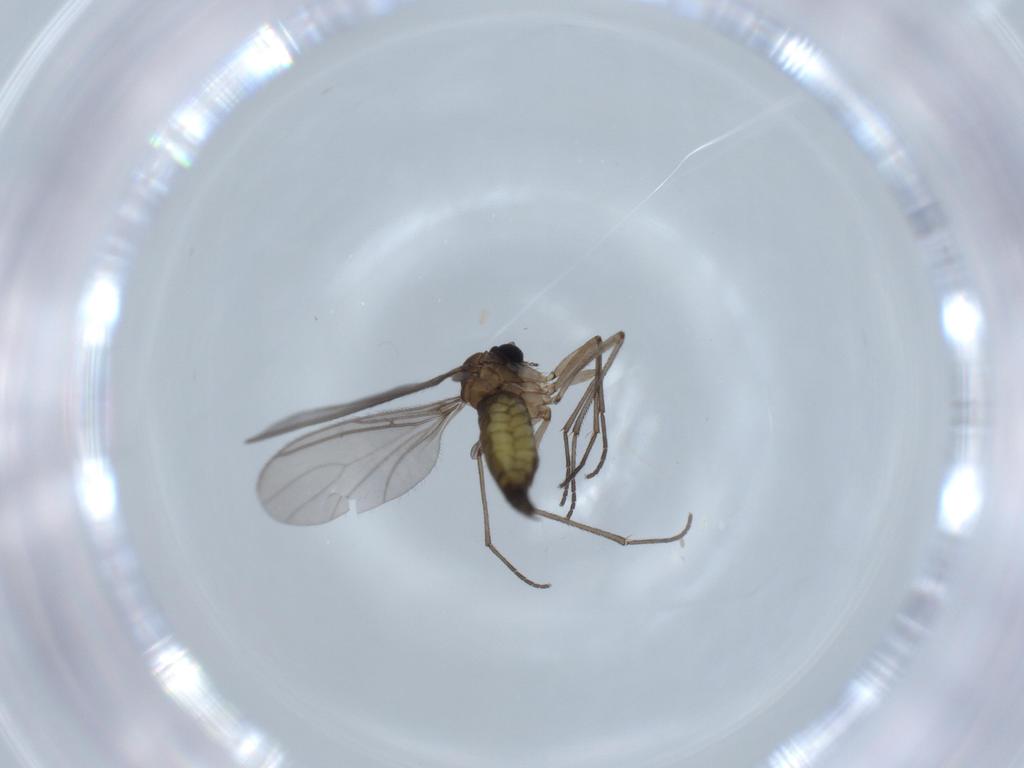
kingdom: Animalia
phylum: Arthropoda
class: Insecta
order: Diptera
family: Sciaridae
